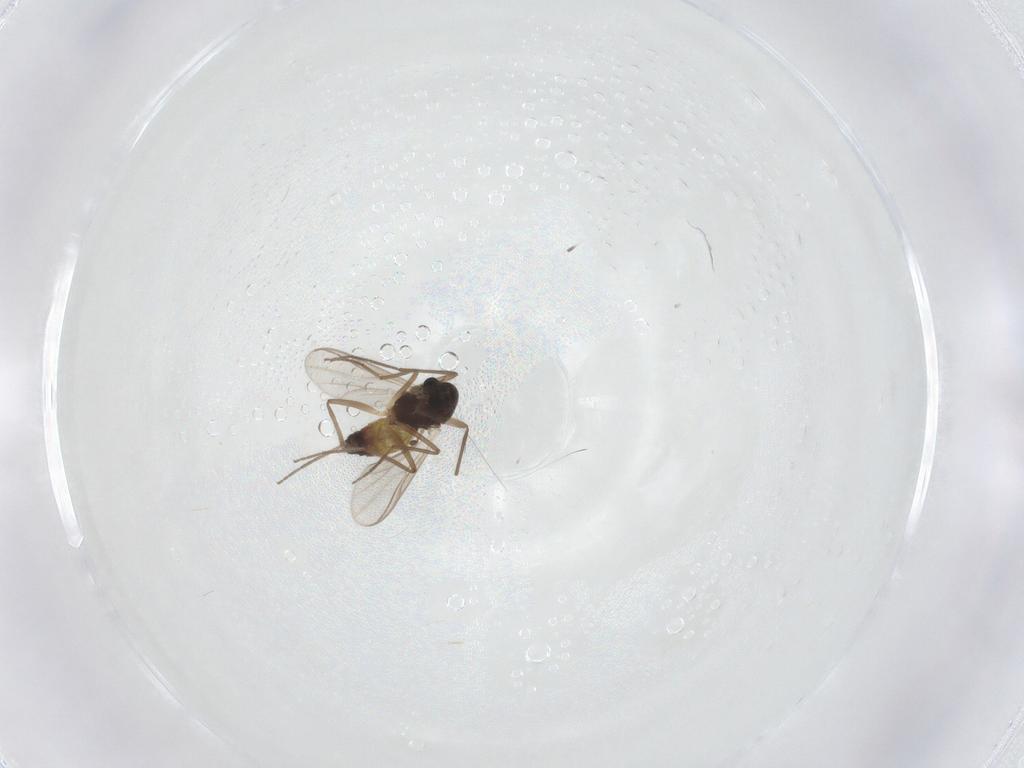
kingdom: Animalia
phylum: Arthropoda
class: Insecta
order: Diptera
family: Chironomidae
